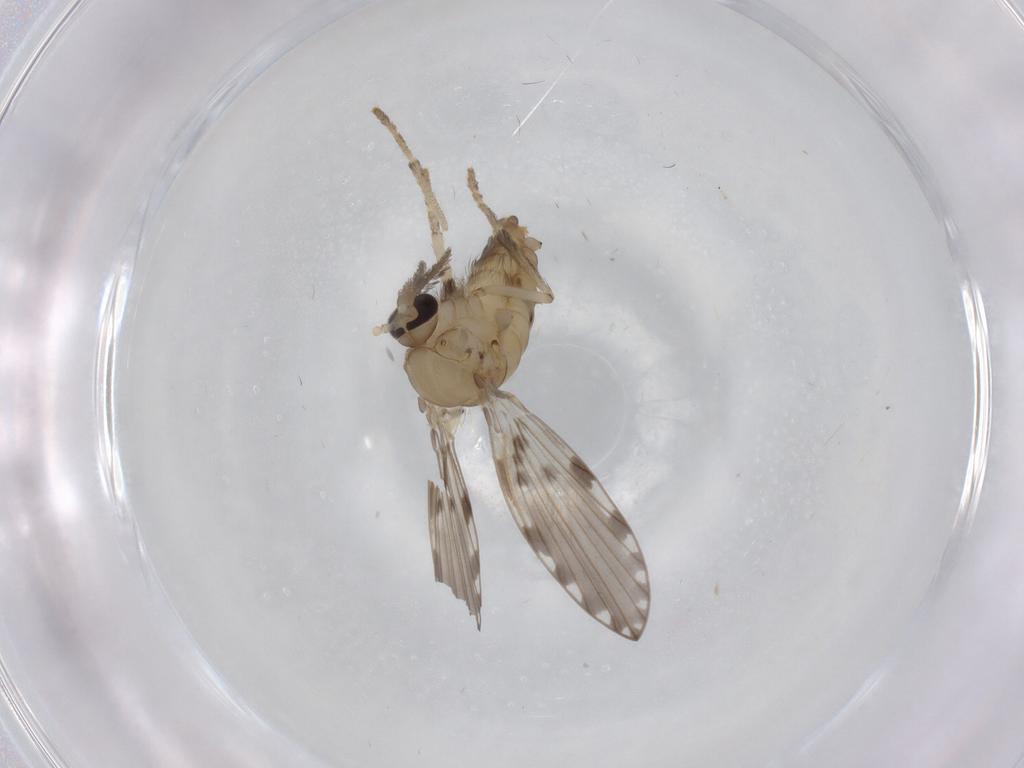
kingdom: Animalia
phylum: Arthropoda
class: Insecta
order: Diptera
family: Psychodidae
